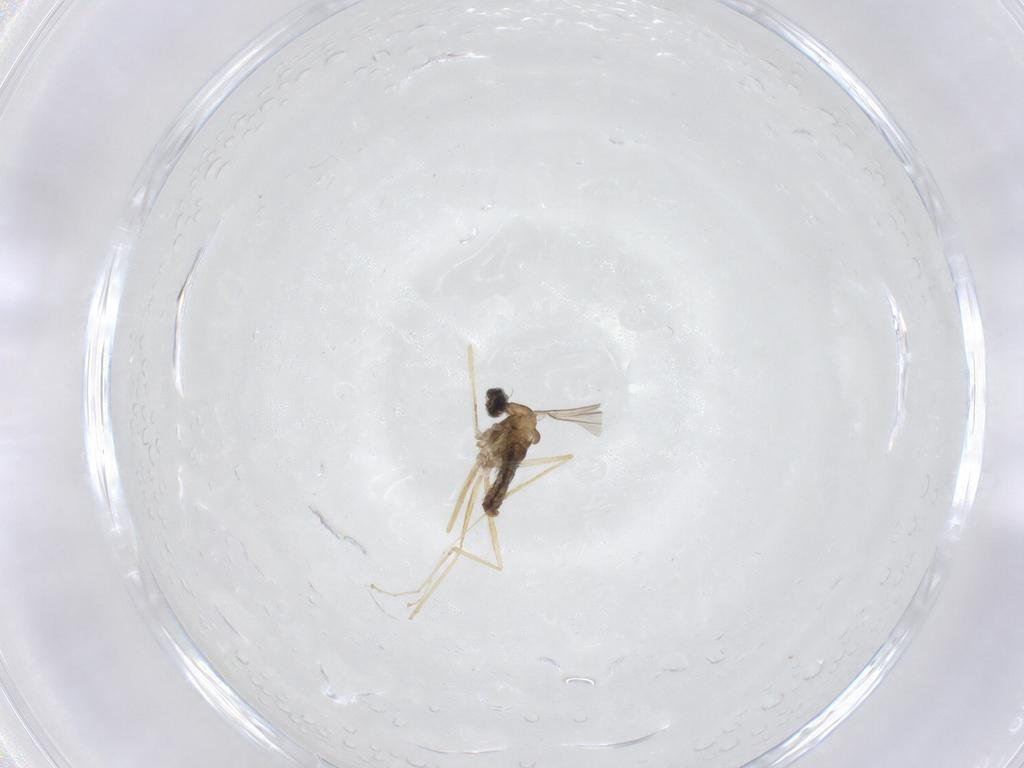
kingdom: Animalia
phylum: Arthropoda
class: Insecta
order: Diptera
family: Cecidomyiidae
